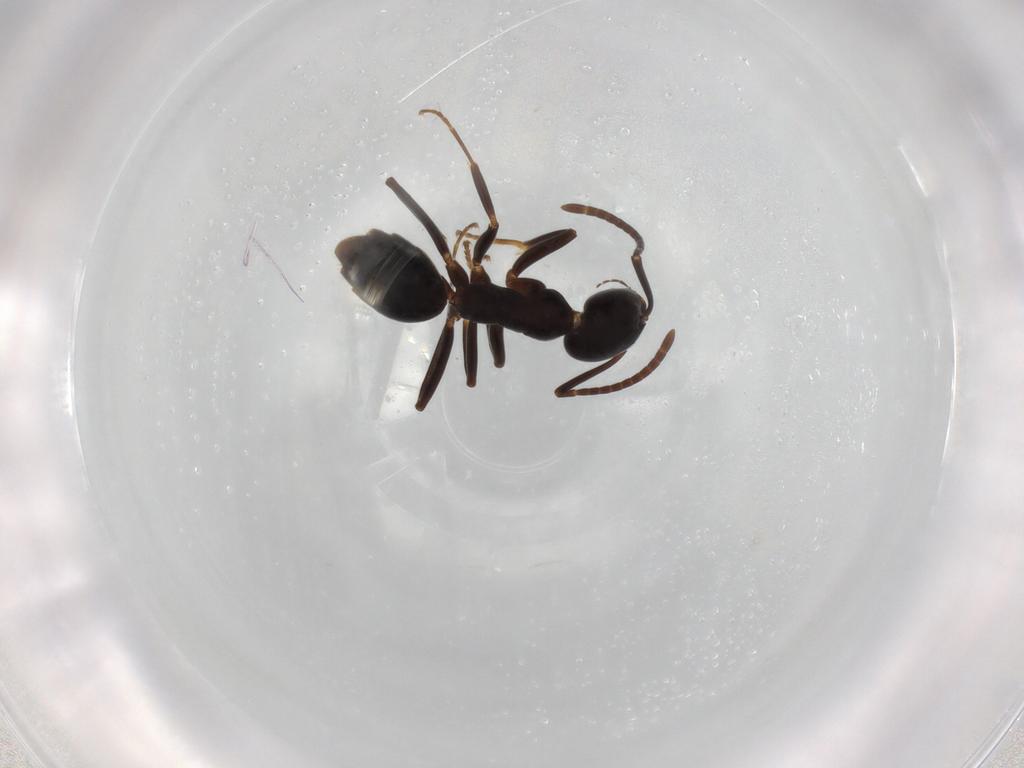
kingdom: Animalia
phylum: Arthropoda
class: Insecta
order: Hymenoptera
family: Formicidae
